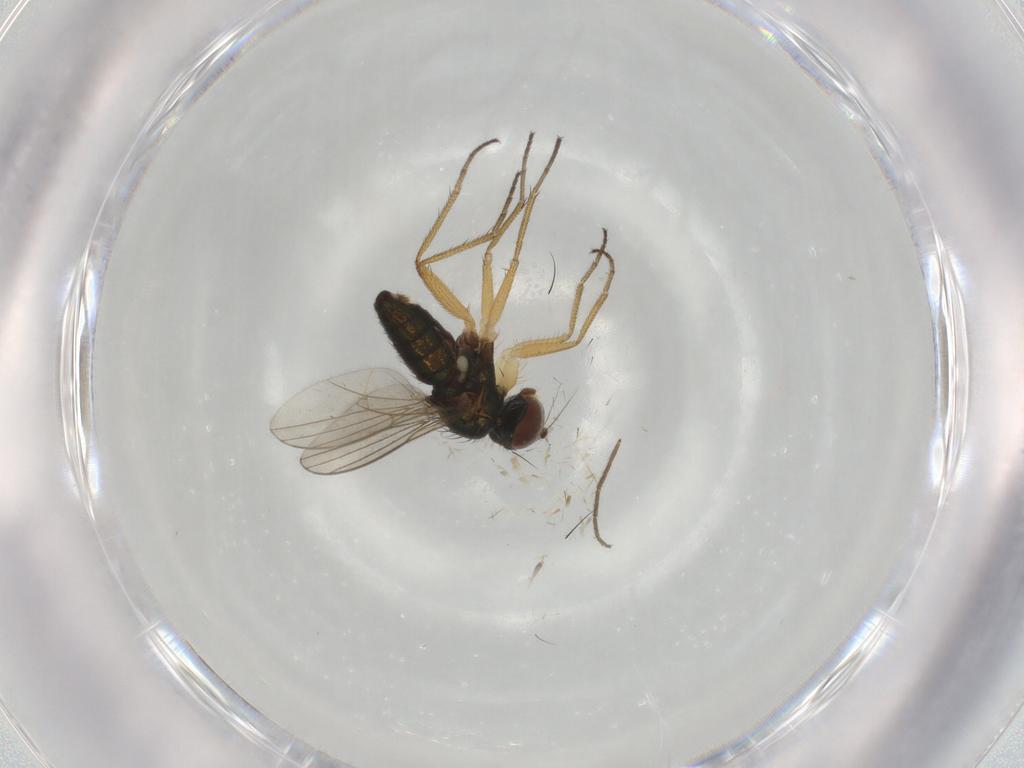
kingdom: Animalia
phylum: Arthropoda
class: Insecta
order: Diptera
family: Dolichopodidae
